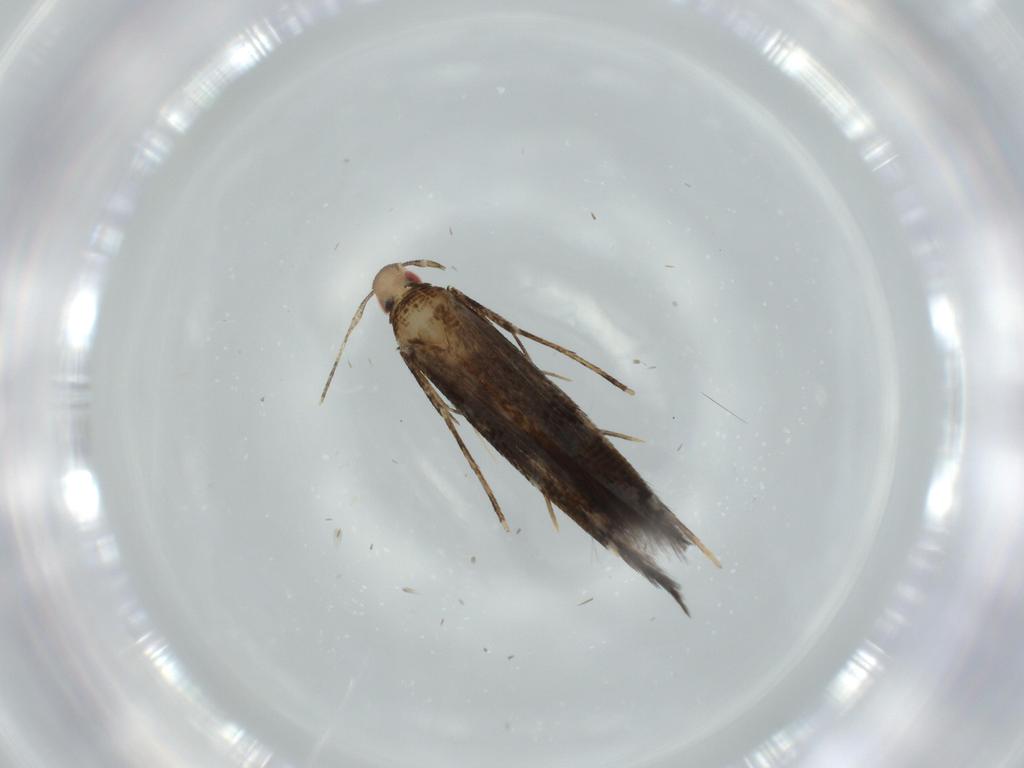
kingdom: Animalia
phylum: Arthropoda
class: Insecta
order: Lepidoptera
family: Cosmopterigidae
